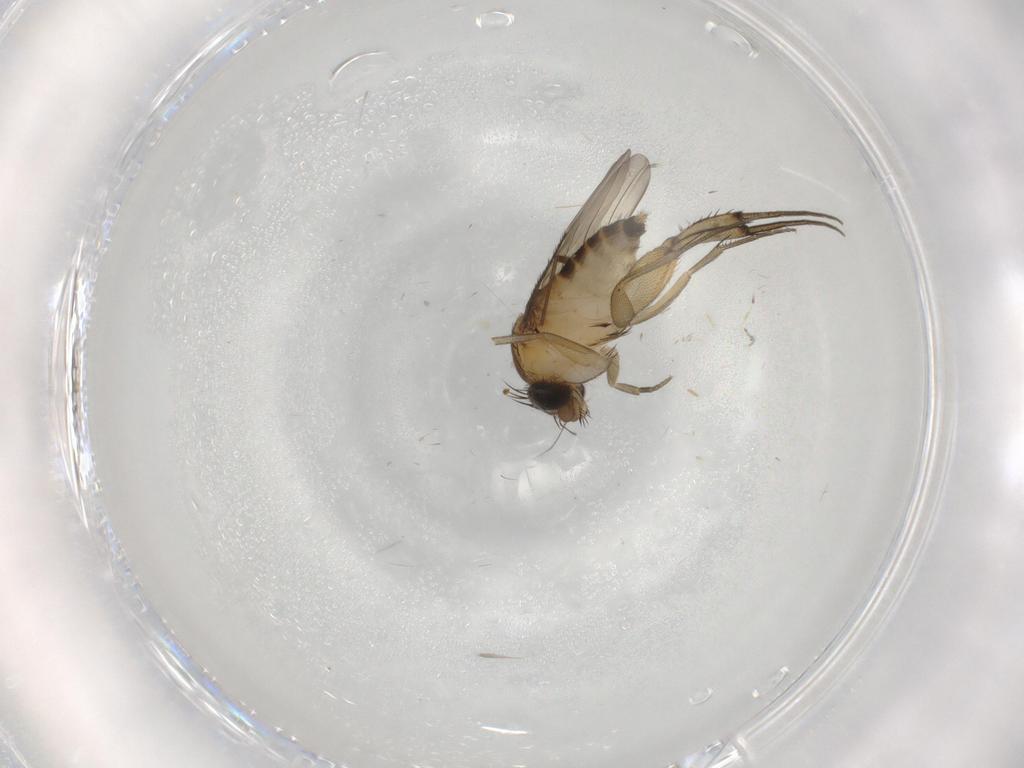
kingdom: Animalia
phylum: Arthropoda
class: Insecta
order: Diptera
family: Phoridae
